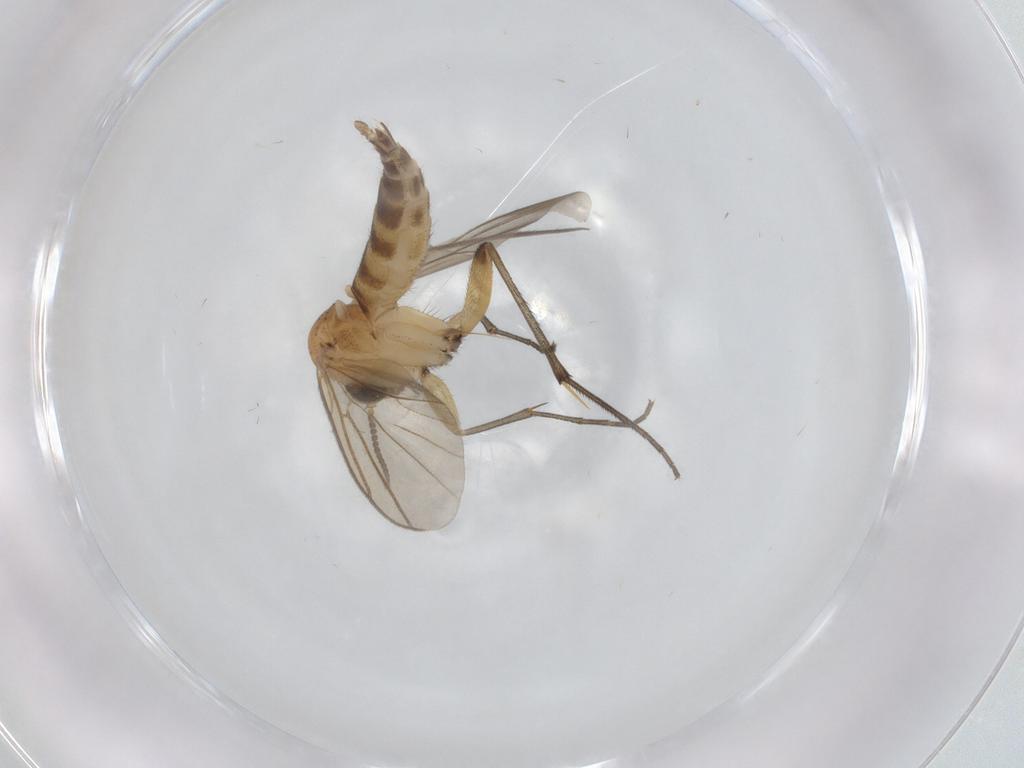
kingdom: Animalia
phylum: Arthropoda
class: Insecta
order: Diptera
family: Mycetophilidae
